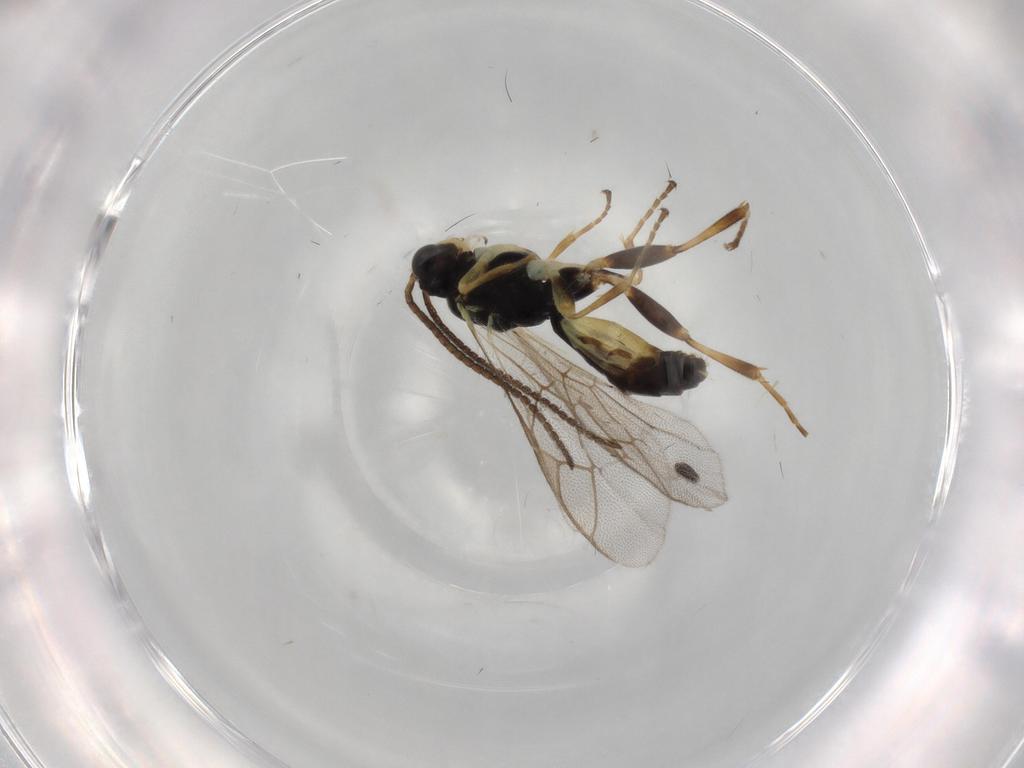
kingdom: Animalia
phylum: Arthropoda
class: Insecta
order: Hymenoptera
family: Ichneumonidae
